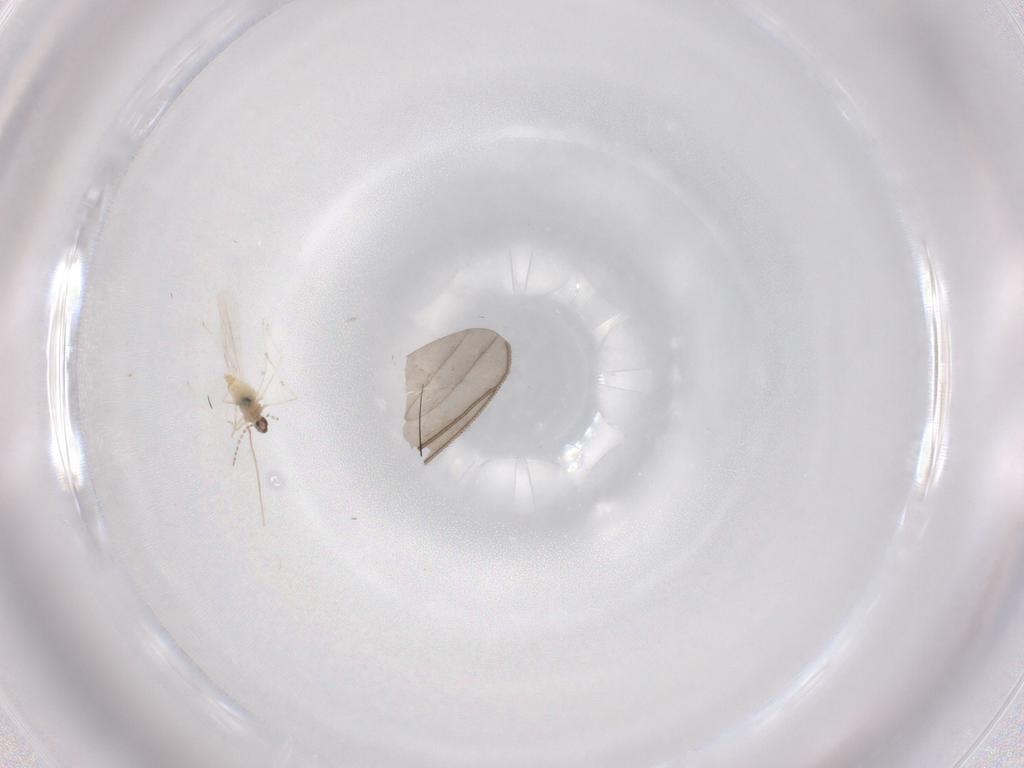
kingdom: Animalia
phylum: Arthropoda
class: Insecta
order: Diptera
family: Cecidomyiidae
